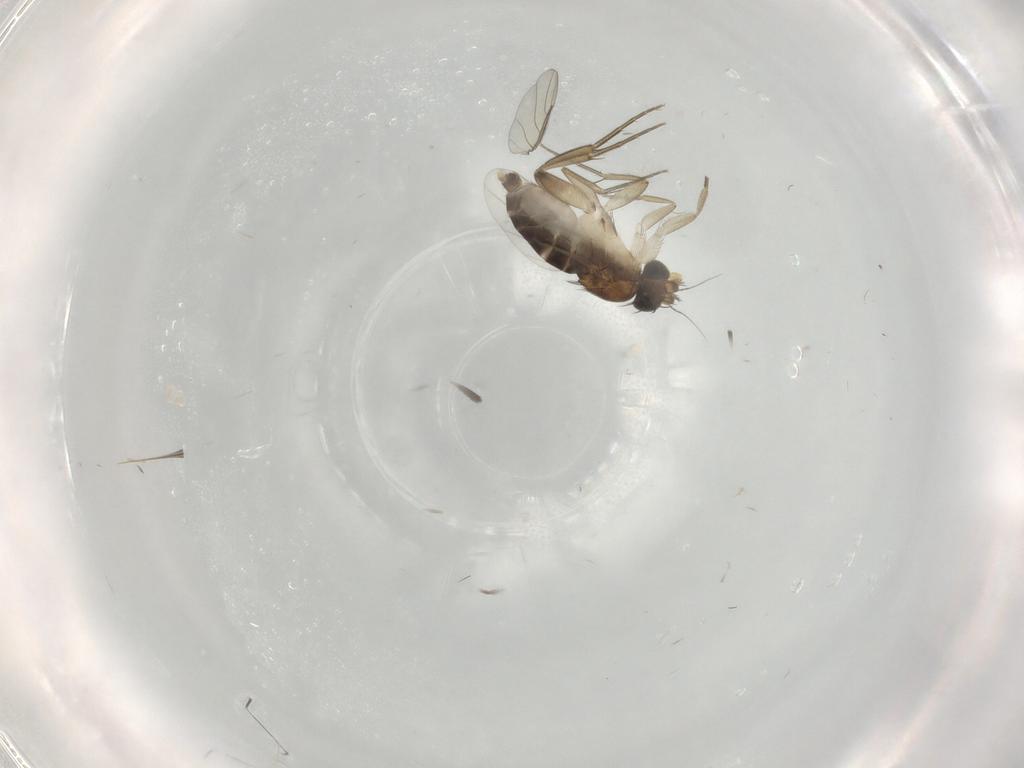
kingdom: Animalia
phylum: Arthropoda
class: Insecta
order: Diptera
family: Phoridae
